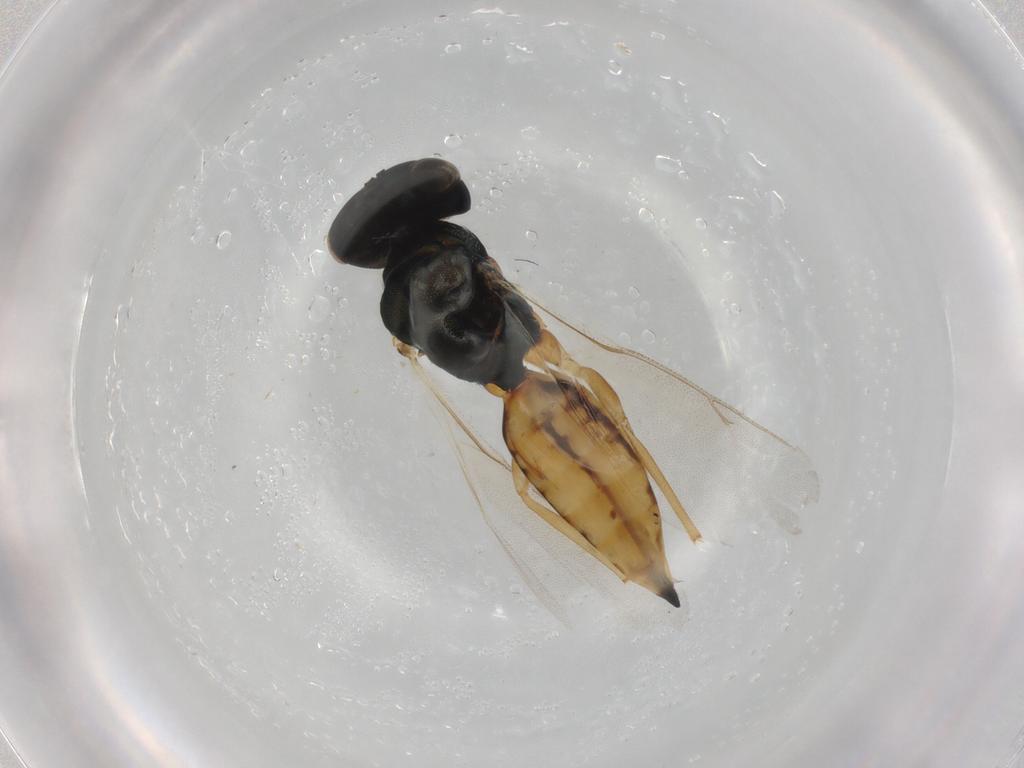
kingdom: Animalia
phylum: Arthropoda
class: Insecta
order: Hymenoptera
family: Pteromalidae
